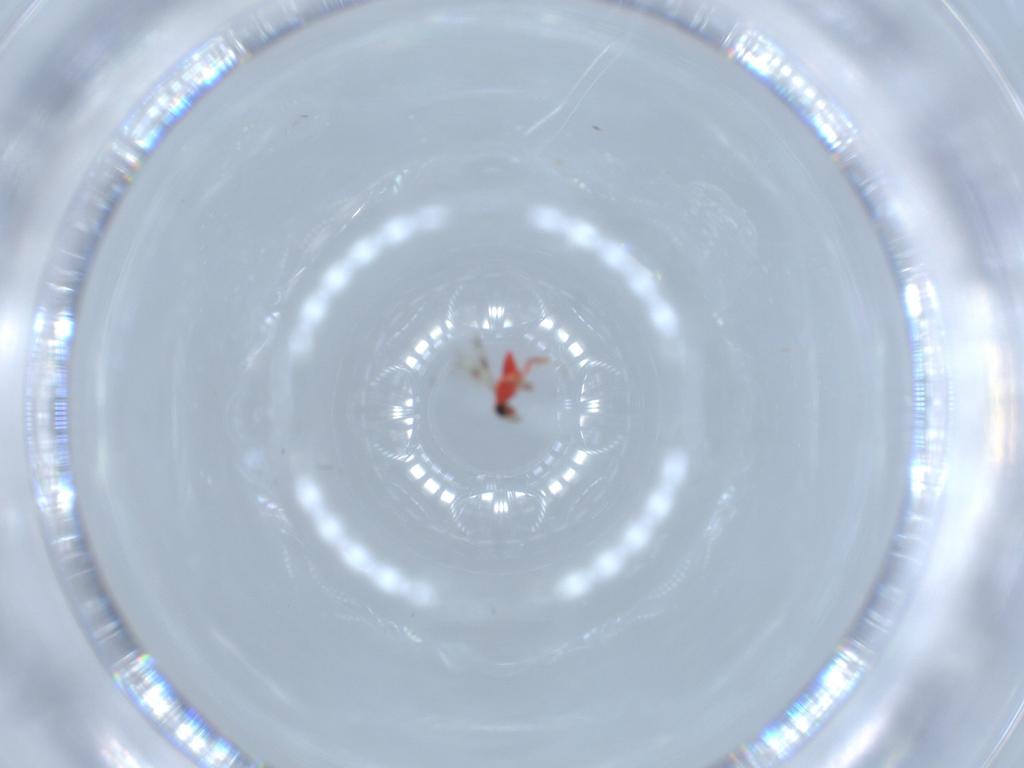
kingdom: Animalia
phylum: Arthropoda
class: Insecta
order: Hymenoptera
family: Trichogrammatidae
